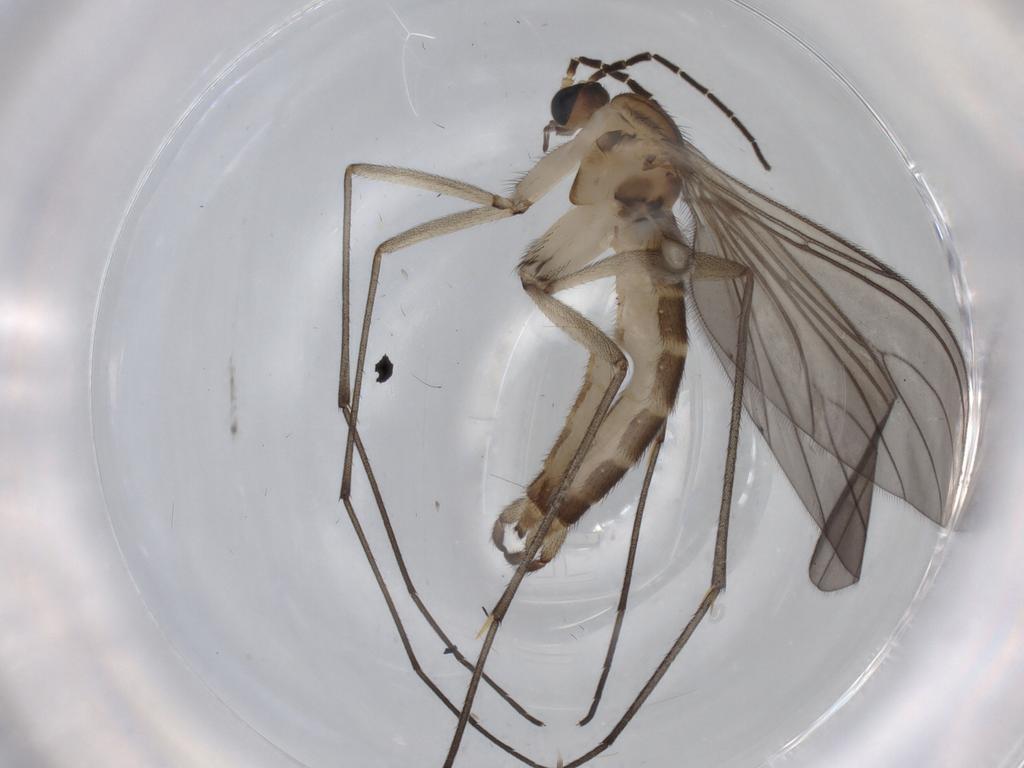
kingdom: Animalia
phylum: Arthropoda
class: Insecta
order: Diptera
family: Sciaridae
